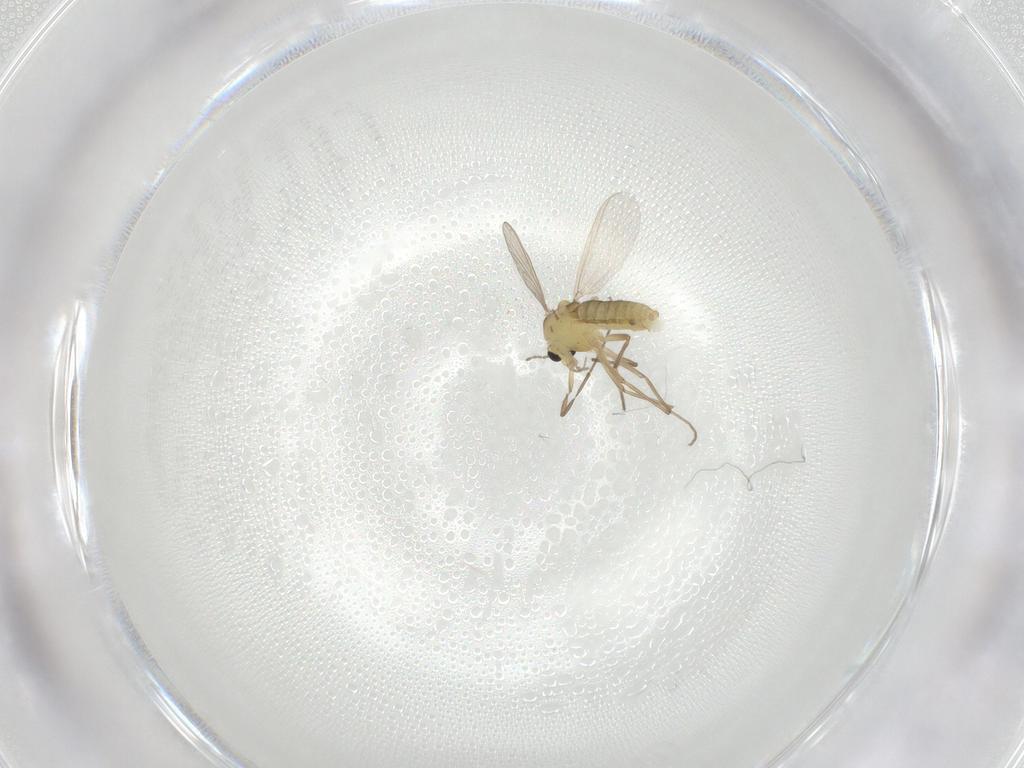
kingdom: Animalia
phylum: Arthropoda
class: Insecta
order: Diptera
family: Chironomidae
